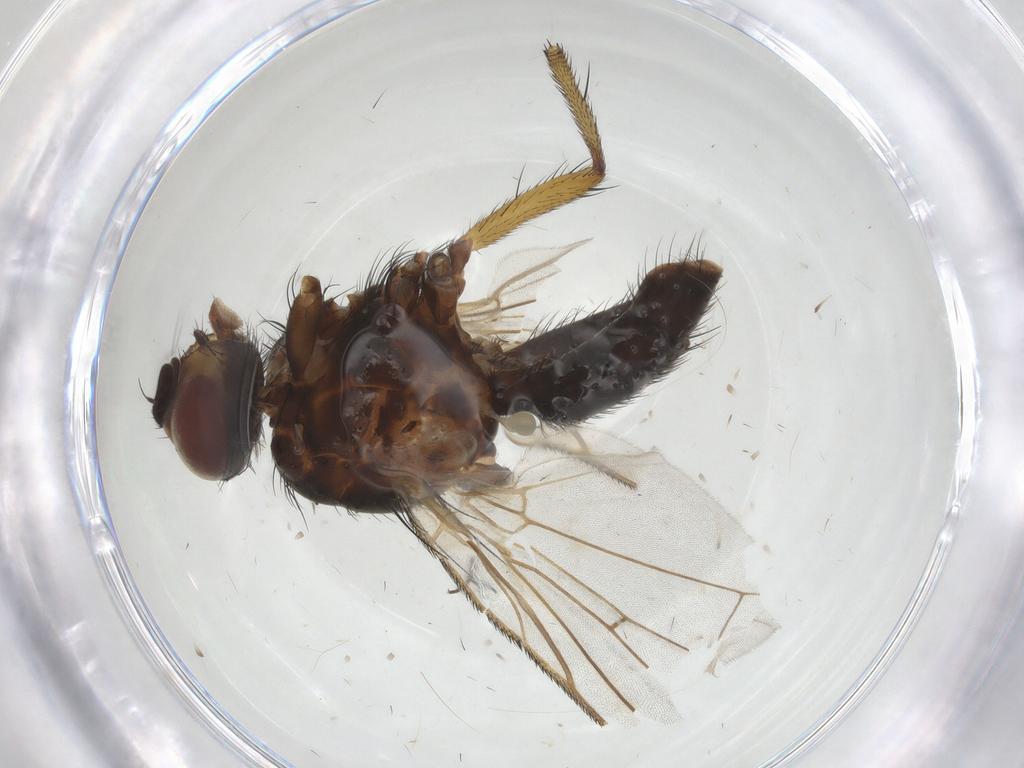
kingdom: Animalia
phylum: Arthropoda
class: Insecta
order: Diptera
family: Anthomyiidae
